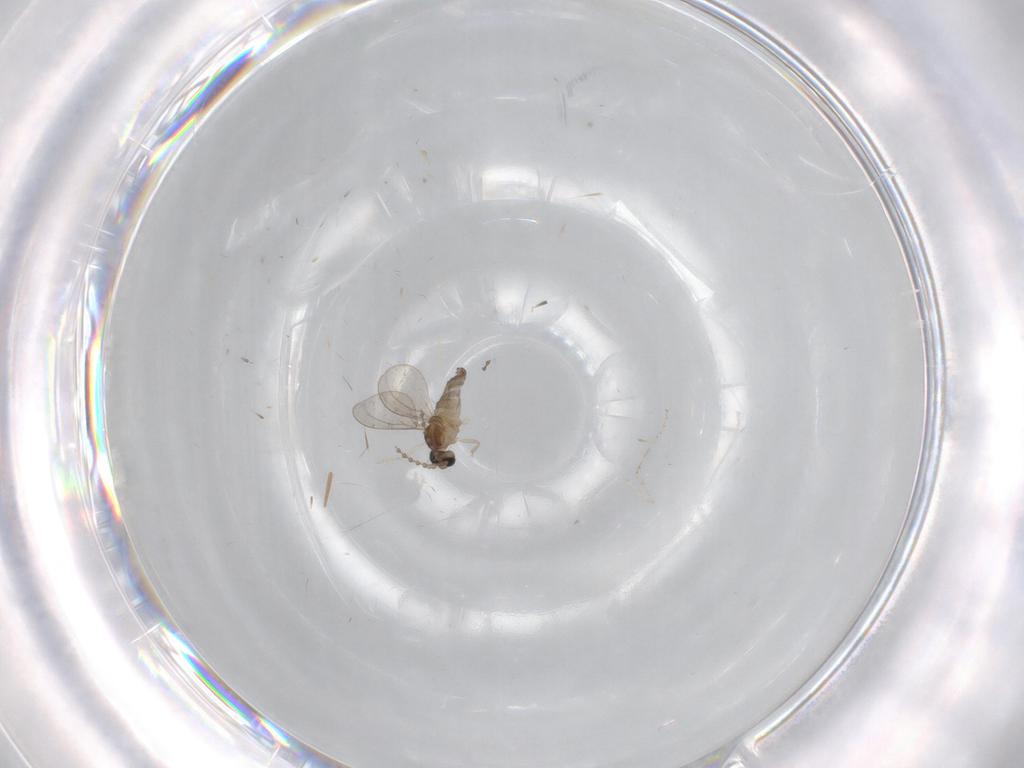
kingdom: Animalia
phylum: Arthropoda
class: Insecta
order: Diptera
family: Cecidomyiidae
